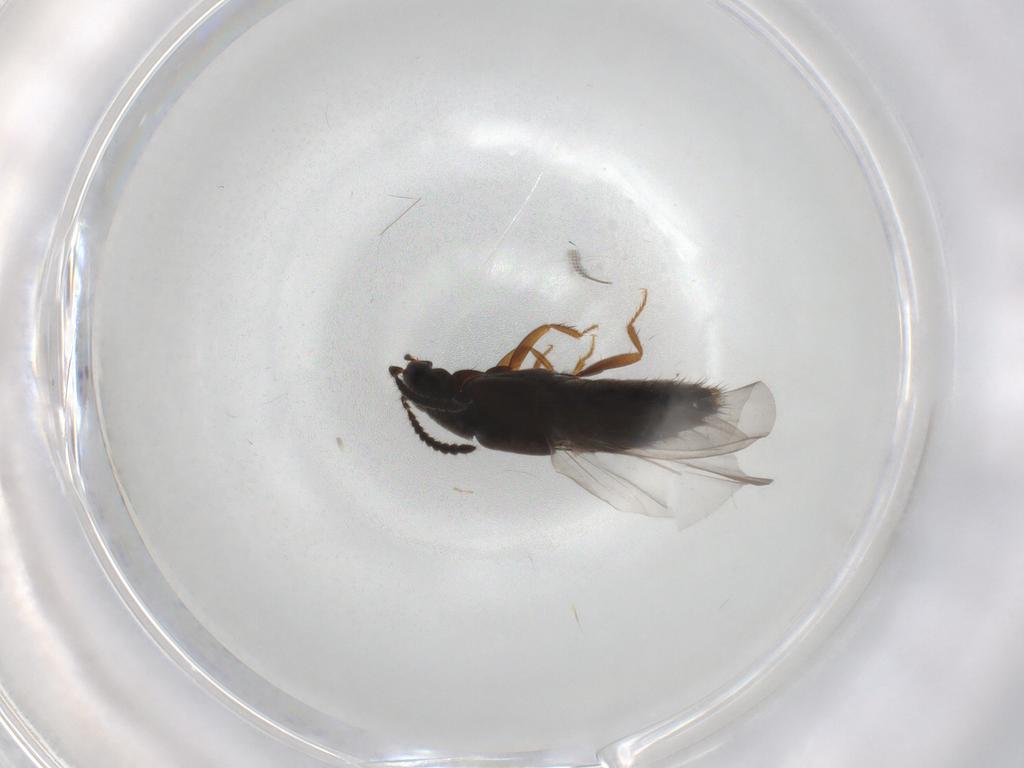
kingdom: Animalia
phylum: Arthropoda
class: Insecta
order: Coleoptera
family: Staphylinidae
